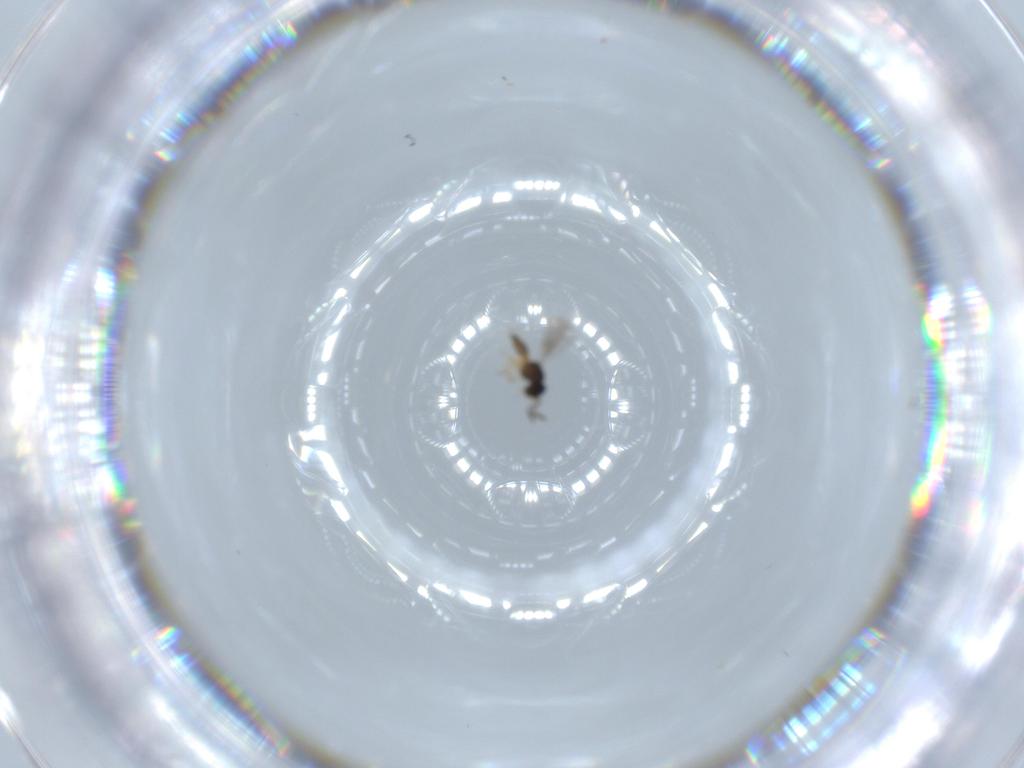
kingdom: Animalia
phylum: Arthropoda
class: Insecta
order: Hymenoptera
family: Scelionidae
